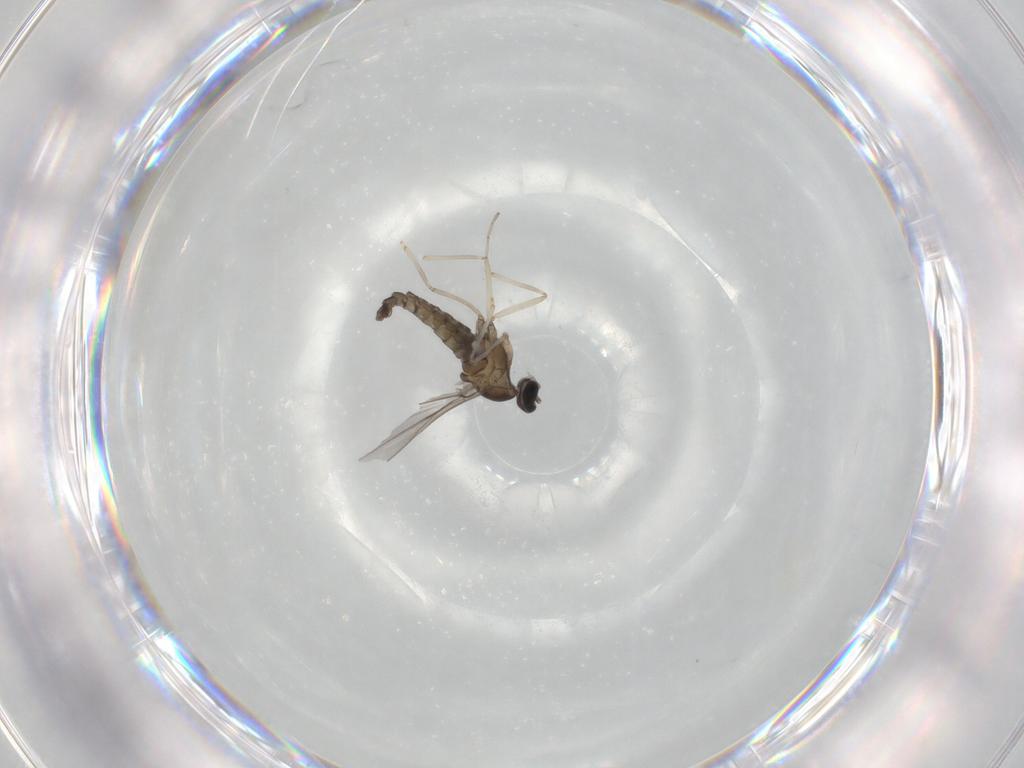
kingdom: Animalia
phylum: Arthropoda
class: Insecta
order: Diptera
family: Cecidomyiidae
